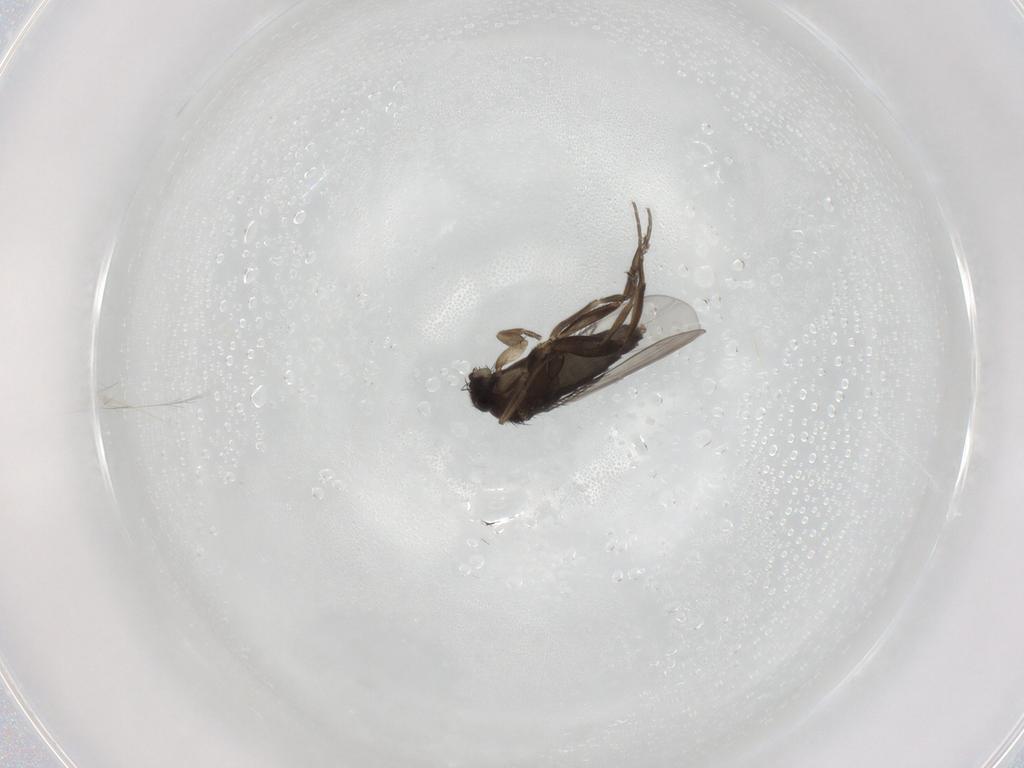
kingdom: Animalia
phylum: Arthropoda
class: Insecta
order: Diptera
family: Phoridae
